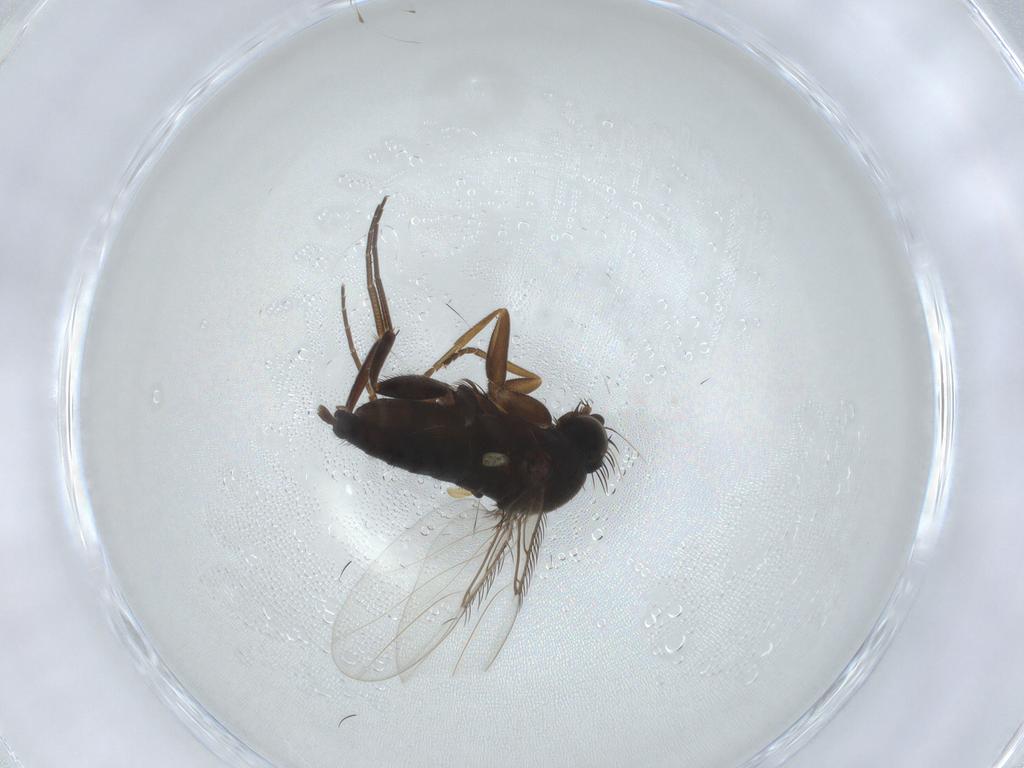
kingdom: Animalia
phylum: Arthropoda
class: Insecta
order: Diptera
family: Phoridae
